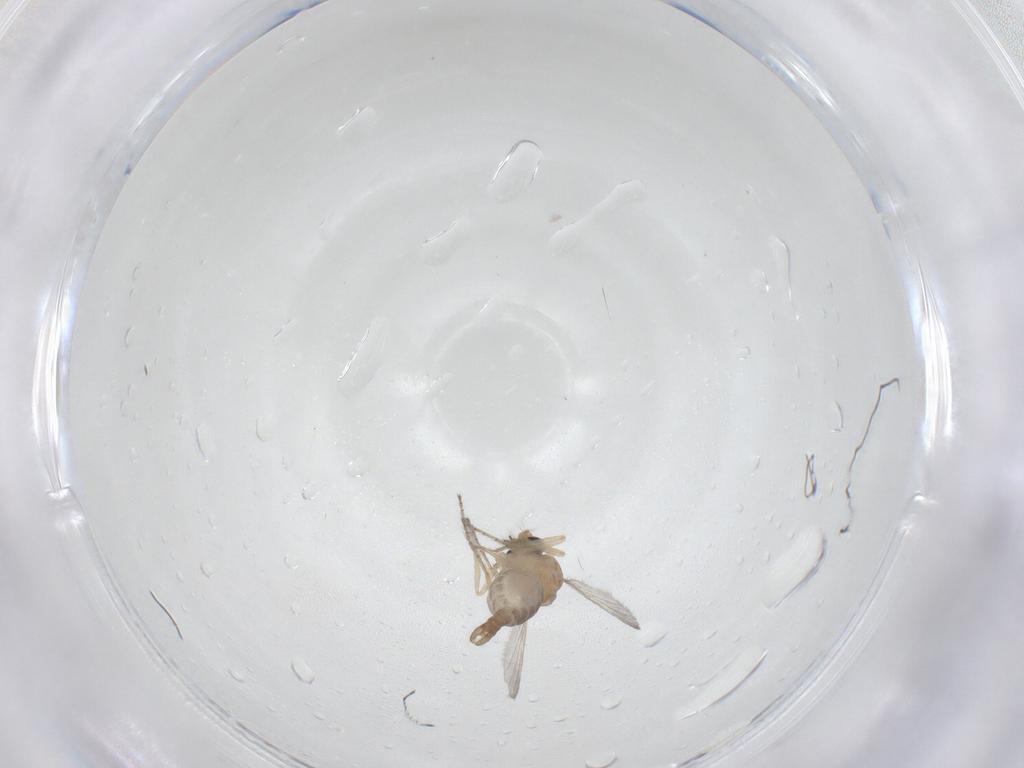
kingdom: Animalia
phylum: Arthropoda
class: Insecta
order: Diptera
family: Ceratopogonidae
